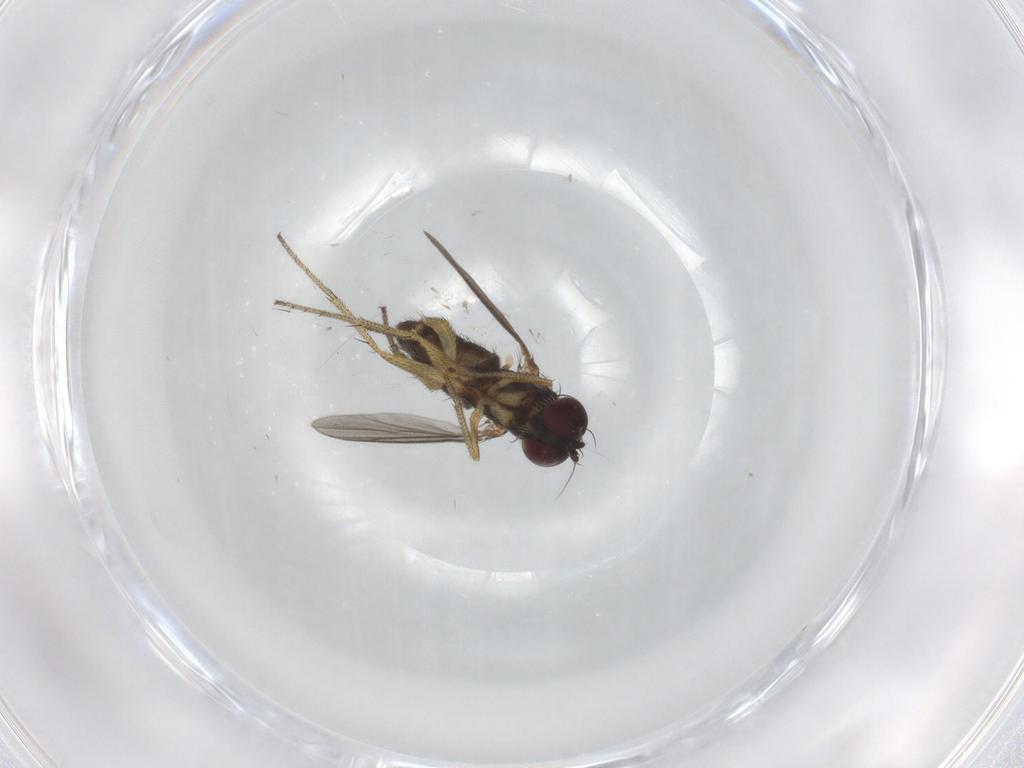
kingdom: Animalia
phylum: Arthropoda
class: Insecta
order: Diptera
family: Dolichopodidae
